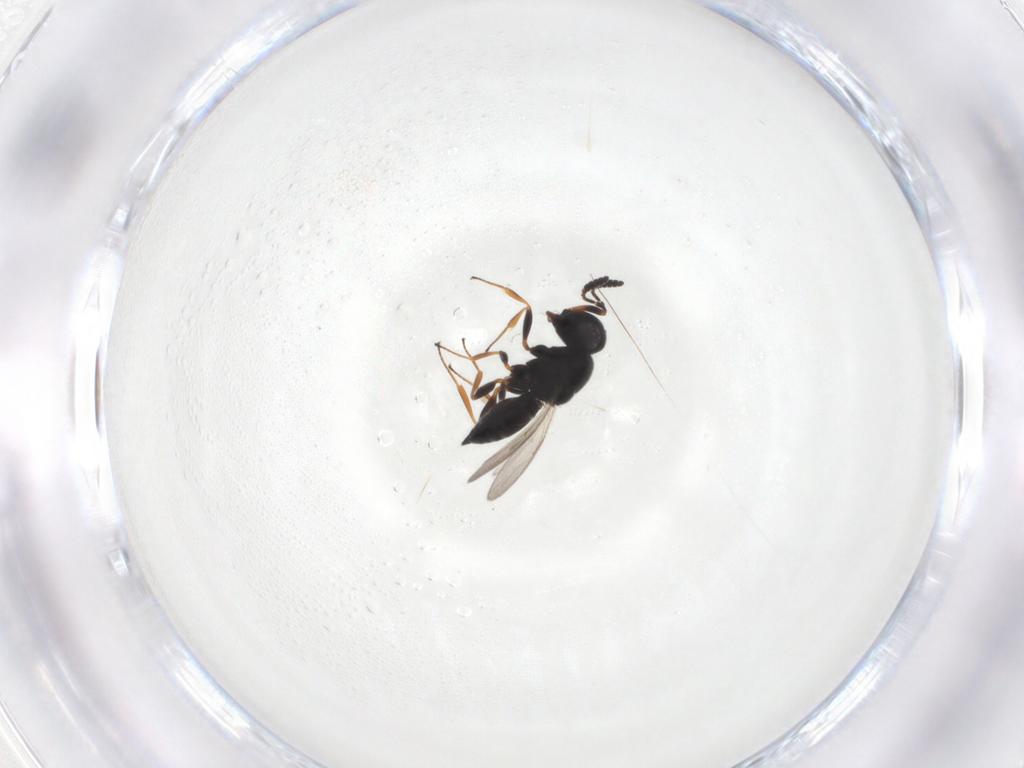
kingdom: Animalia
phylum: Arthropoda
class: Insecta
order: Hymenoptera
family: Scelionidae
